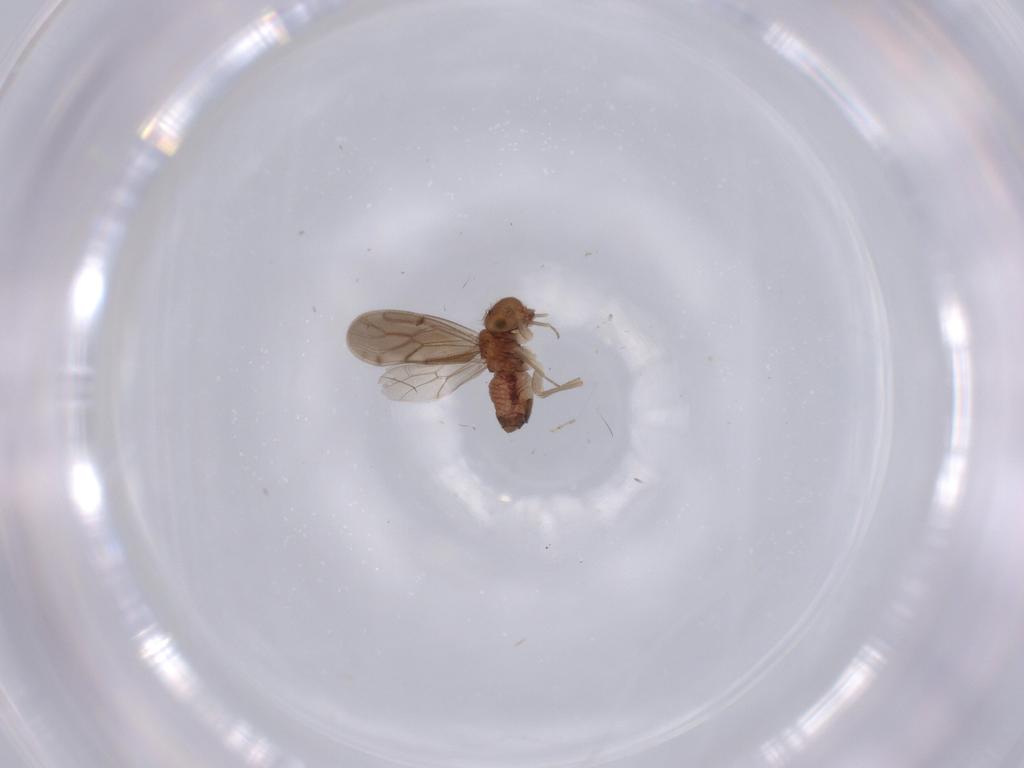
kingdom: Animalia
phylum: Arthropoda
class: Insecta
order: Psocodea
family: Ectopsocidae
